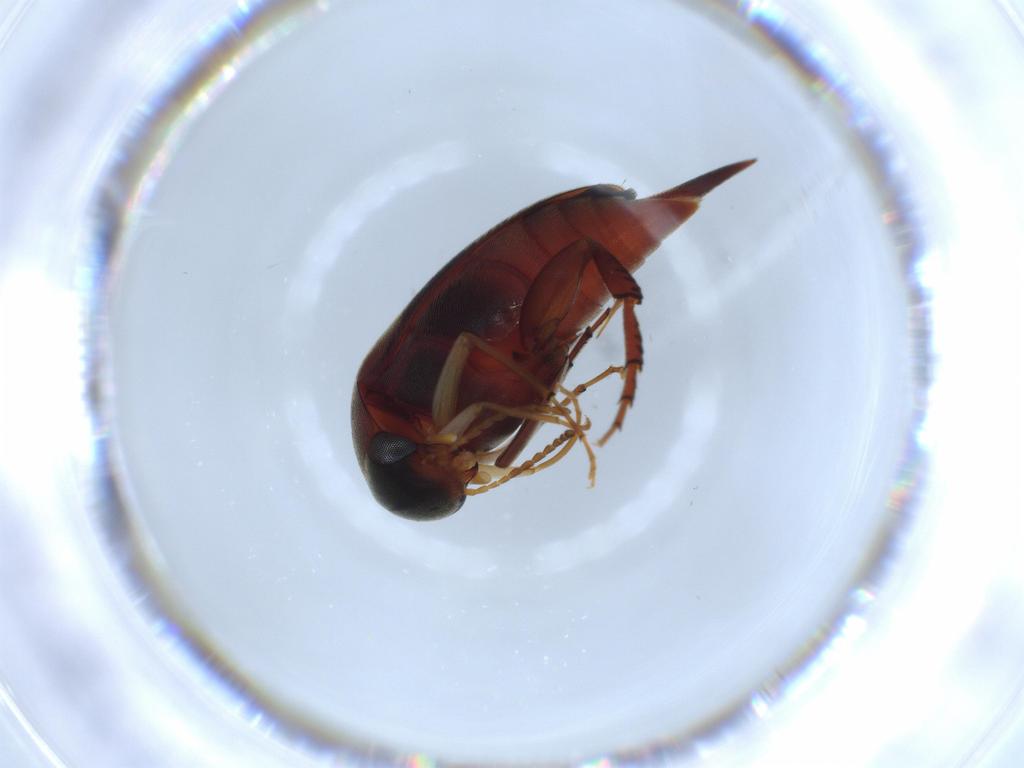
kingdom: Animalia
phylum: Arthropoda
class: Insecta
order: Coleoptera
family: Mordellidae
